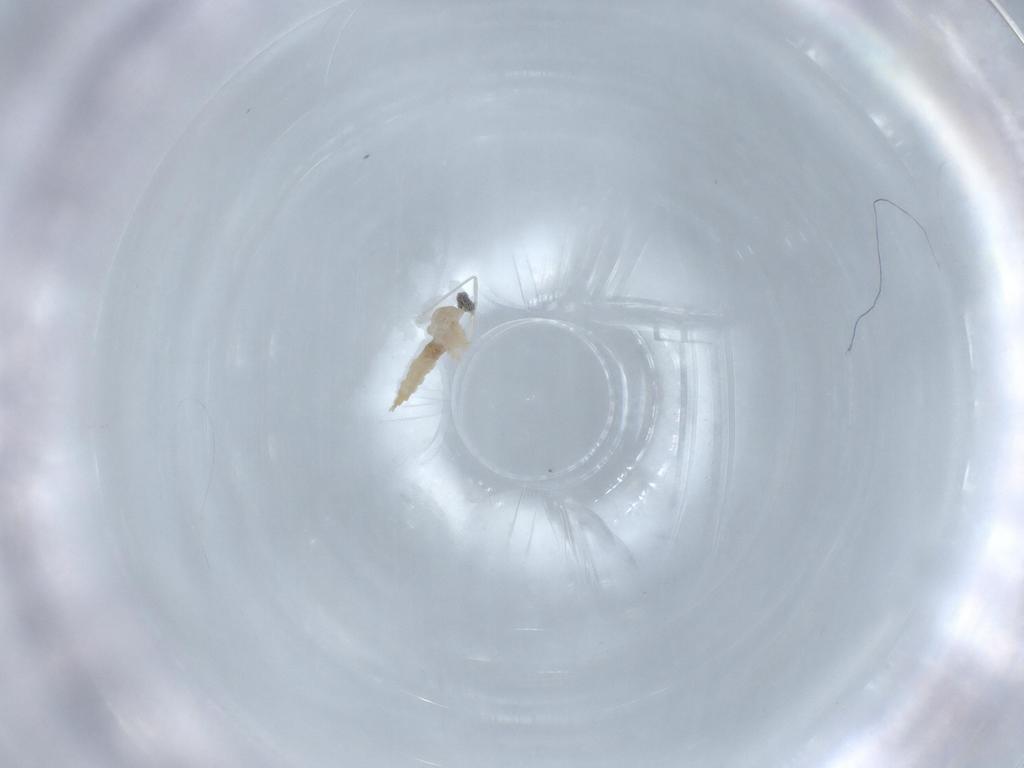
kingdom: Animalia
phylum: Arthropoda
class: Insecta
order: Diptera
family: Cecidomyiidae
